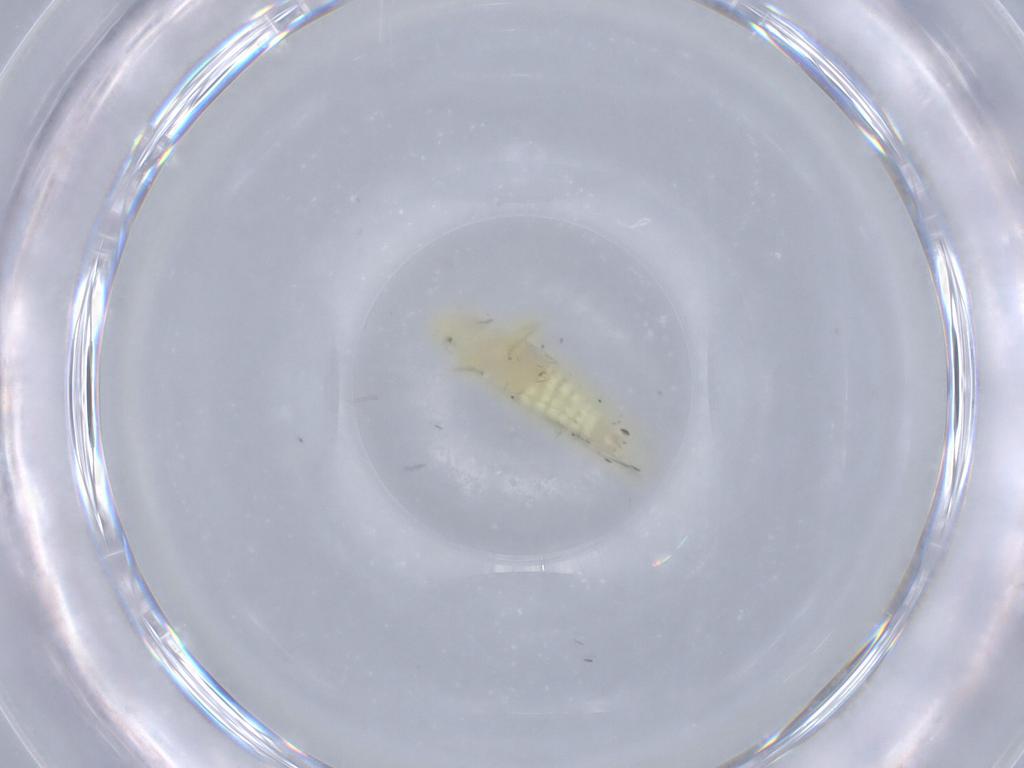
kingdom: Animalia
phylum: Arthropoda
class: Insecta
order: Hemiptera
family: Cicadellidae
